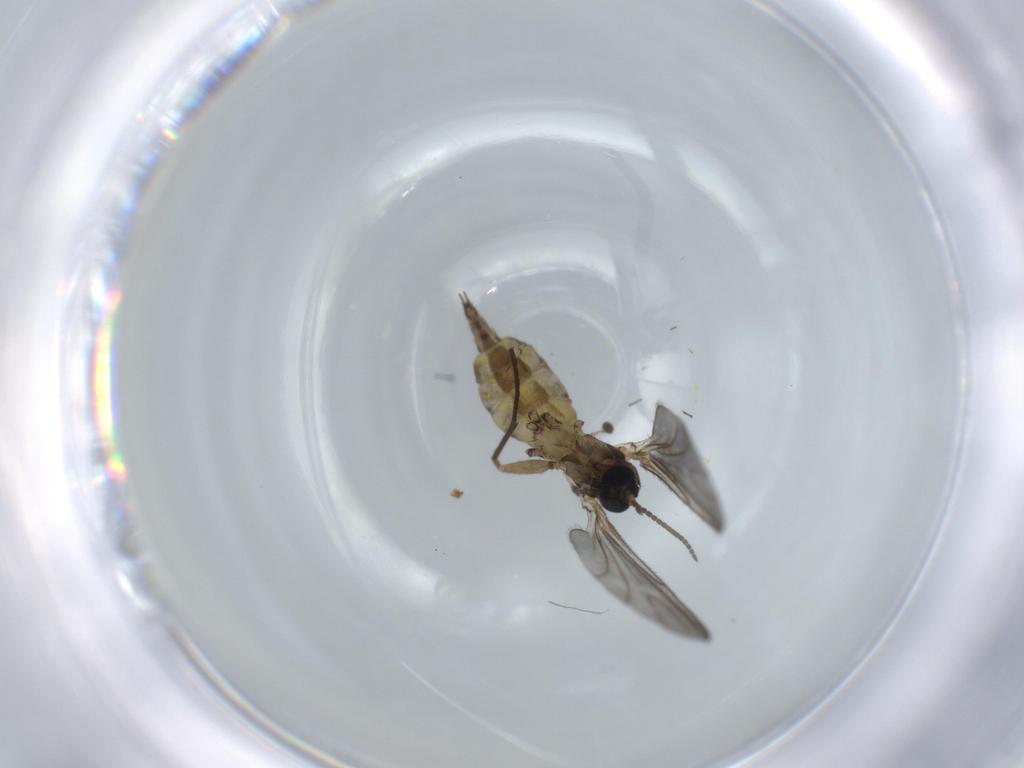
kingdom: Animalia
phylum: Arthropoda
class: Insecta
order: Diptera
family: Sciaridae
